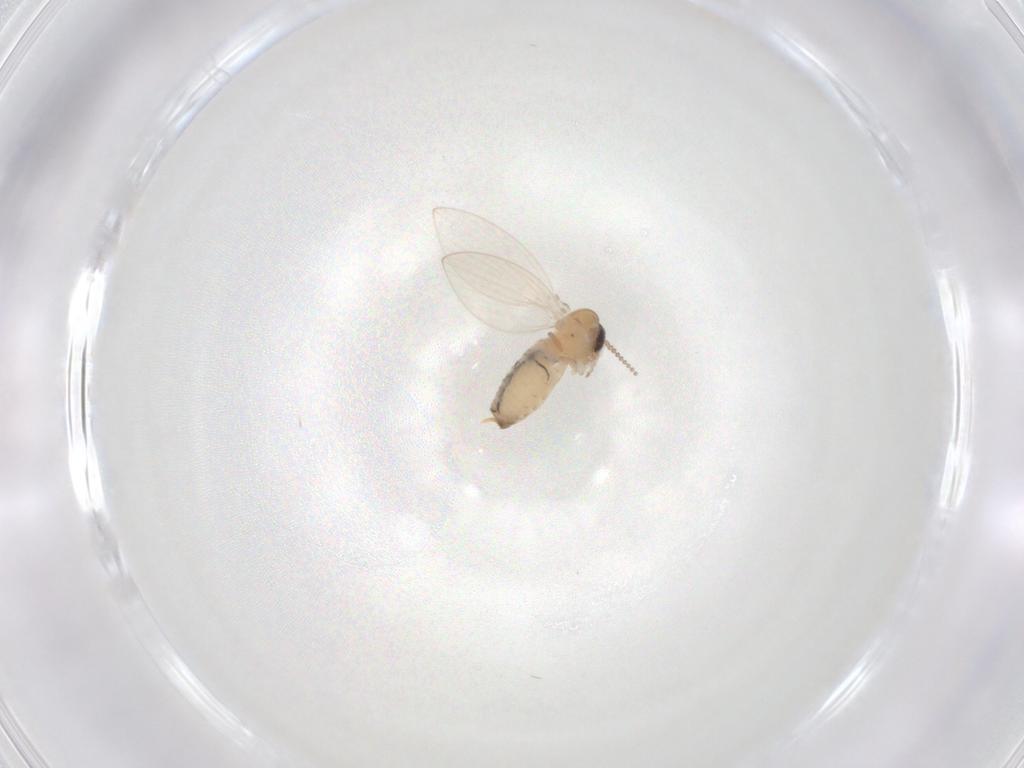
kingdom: Animalia
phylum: Arthropoda
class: Insecta
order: Diptera
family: Psychodidae
